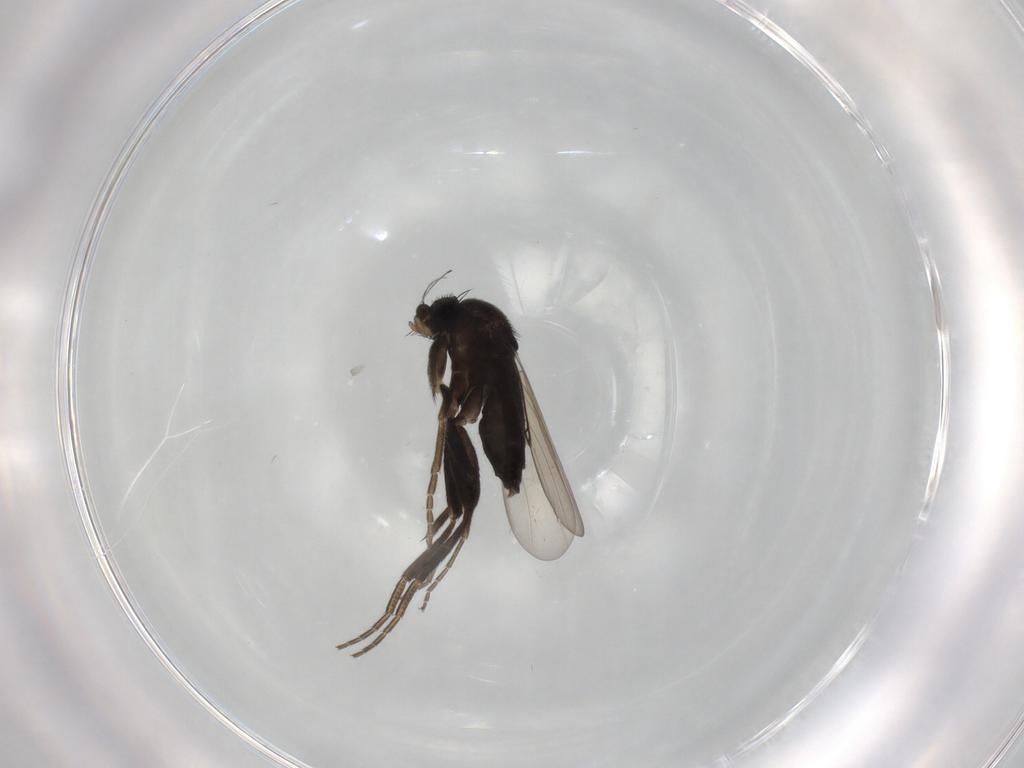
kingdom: Animalia
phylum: Arthropoda
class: Insecta
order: Diptera
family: Phoridae
